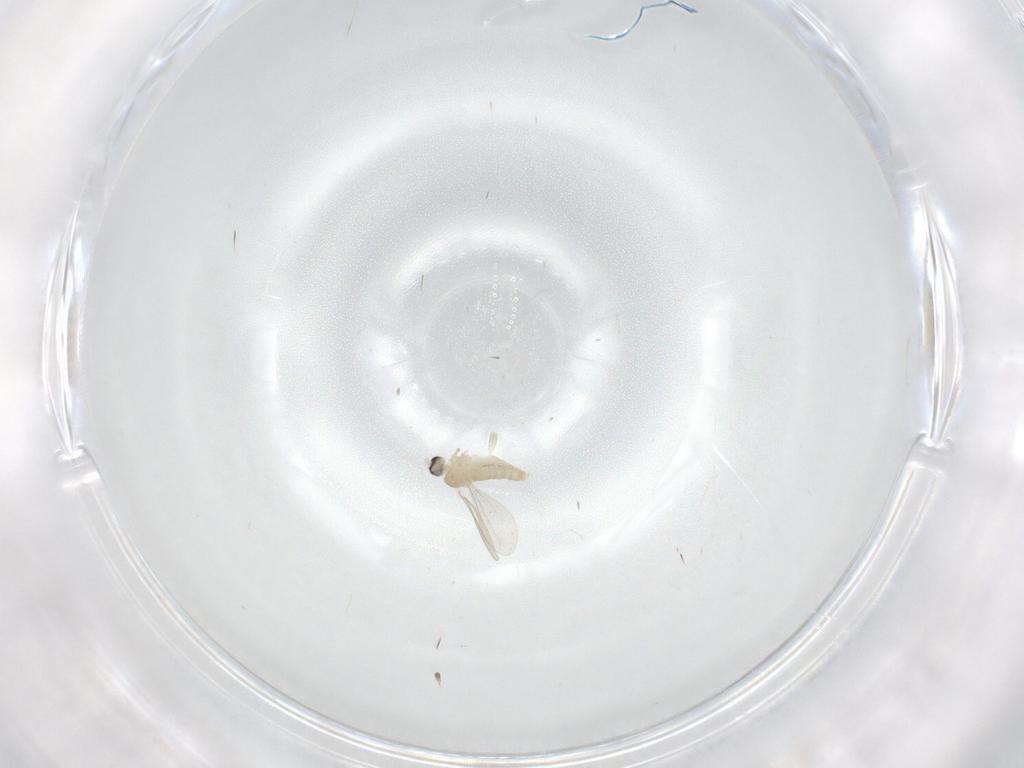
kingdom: Animalia
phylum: Arthropoda
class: Insecta
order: Diptera
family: Cecidomyiidae
